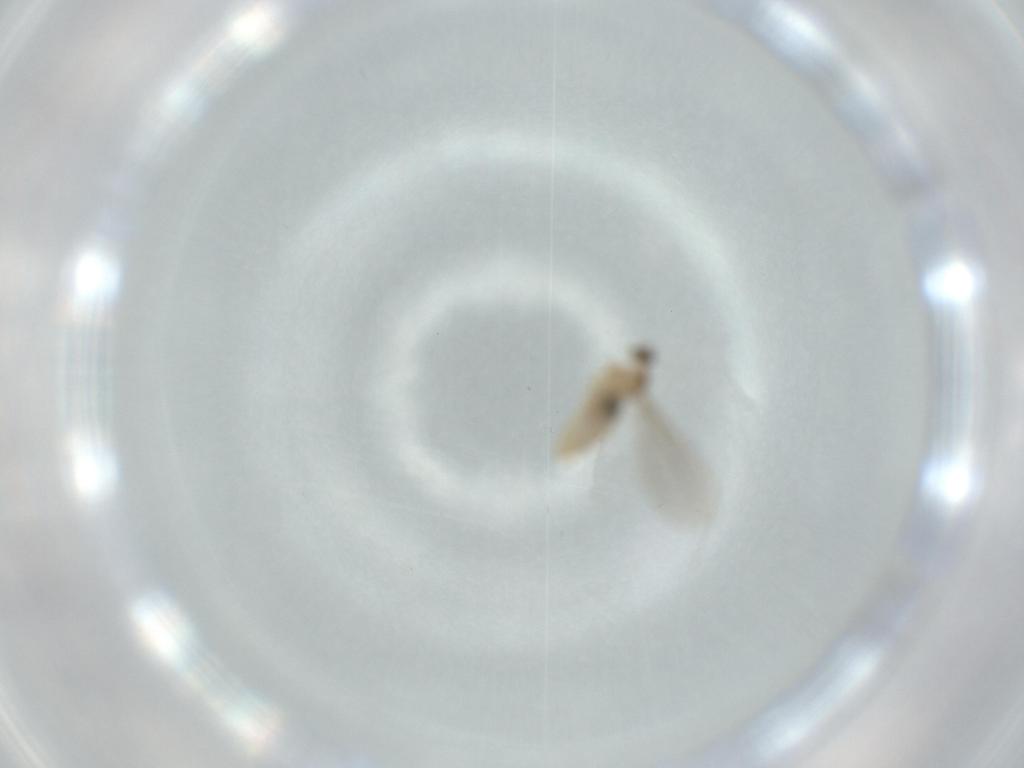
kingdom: Animalia
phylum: Arthropoda
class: Insecta
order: Diptera
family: Cecidomyiidae
